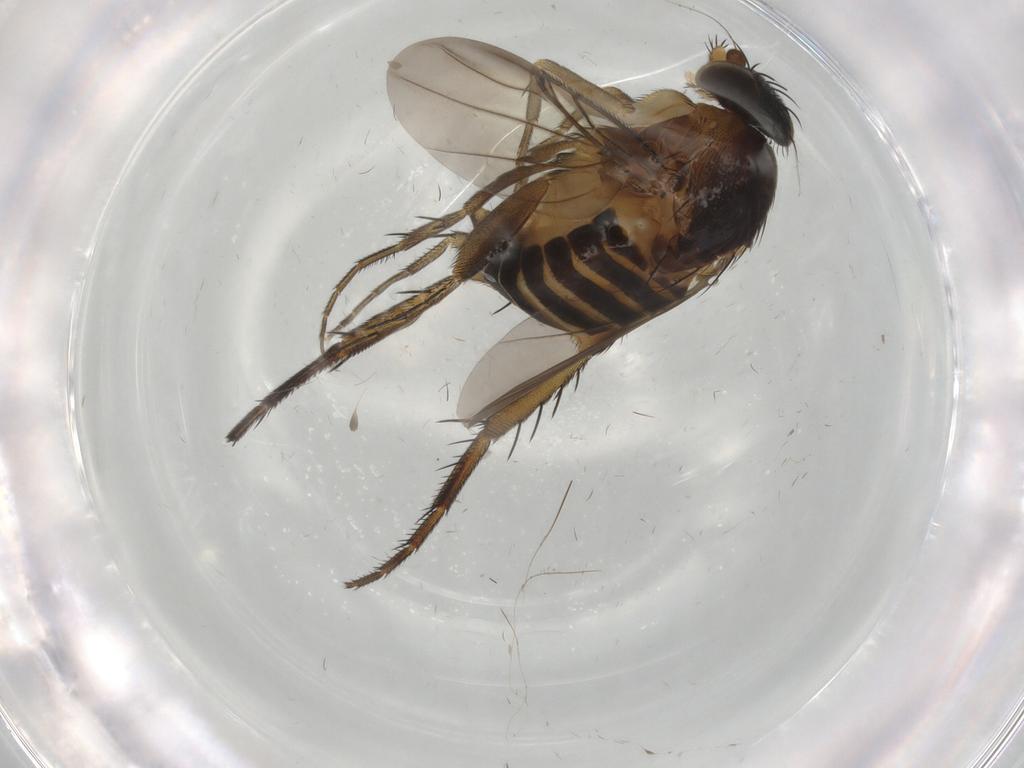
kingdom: Animalia
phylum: Arthropoda
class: Insecta
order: Diptera
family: Phoridae
